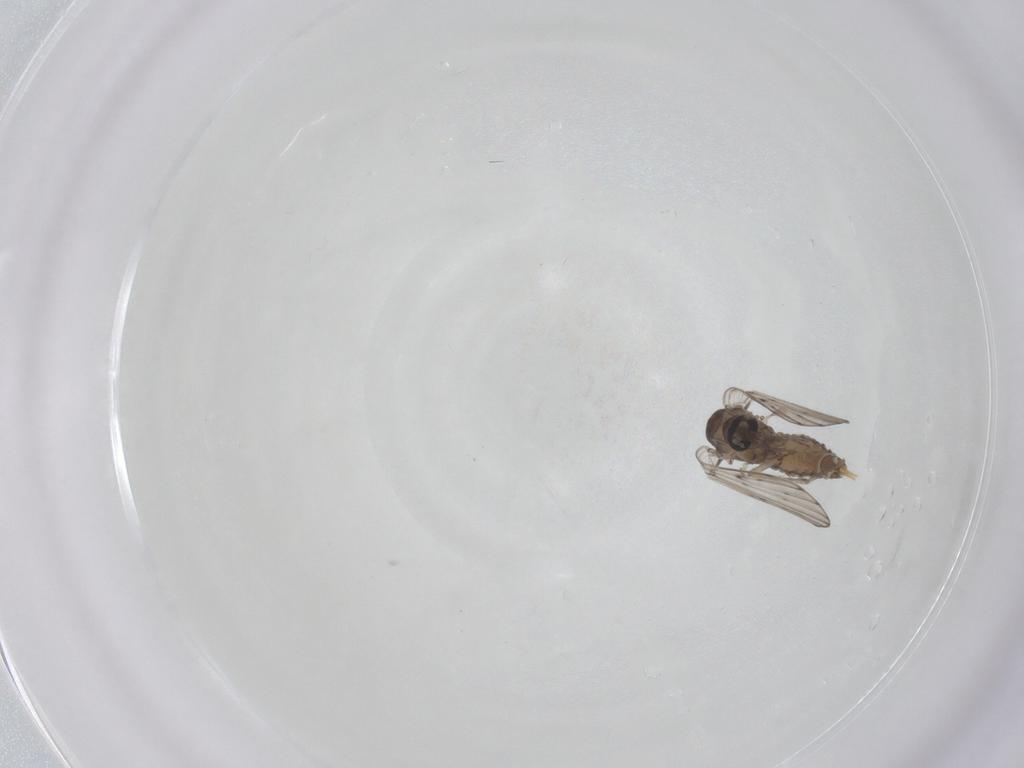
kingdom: Animalia
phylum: Arthropoda
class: Insecta
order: Diptera
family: Psychodidae
